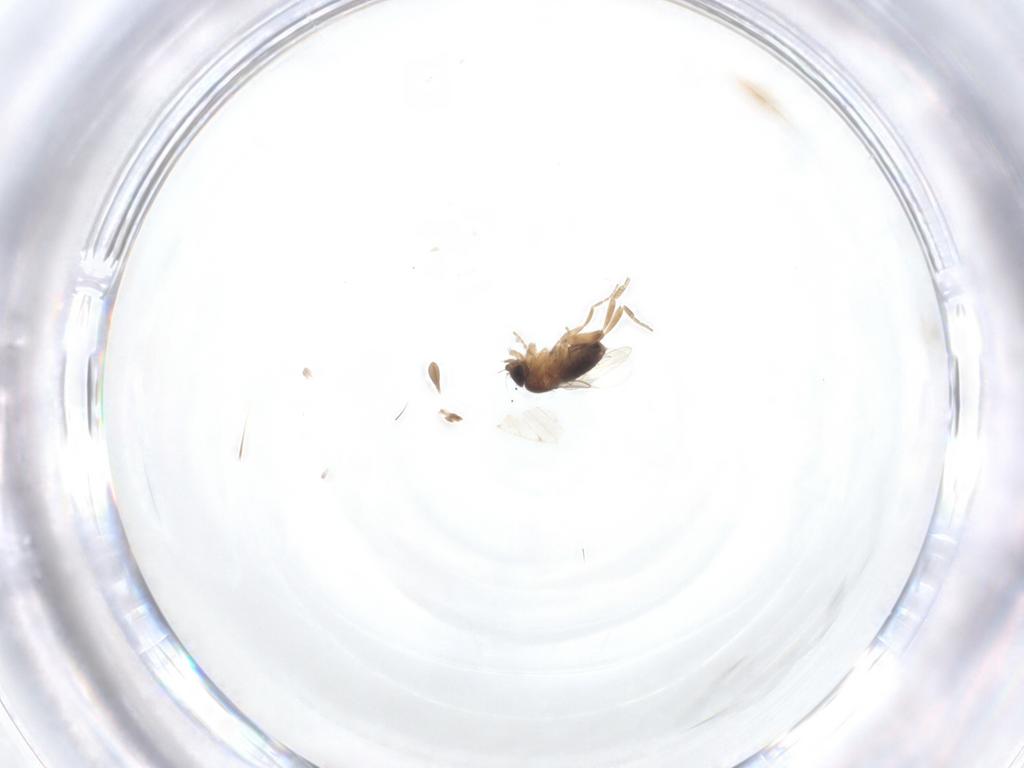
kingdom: Animalia
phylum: Arthropoda
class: Insecta
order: Diptera
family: Sciaridae
